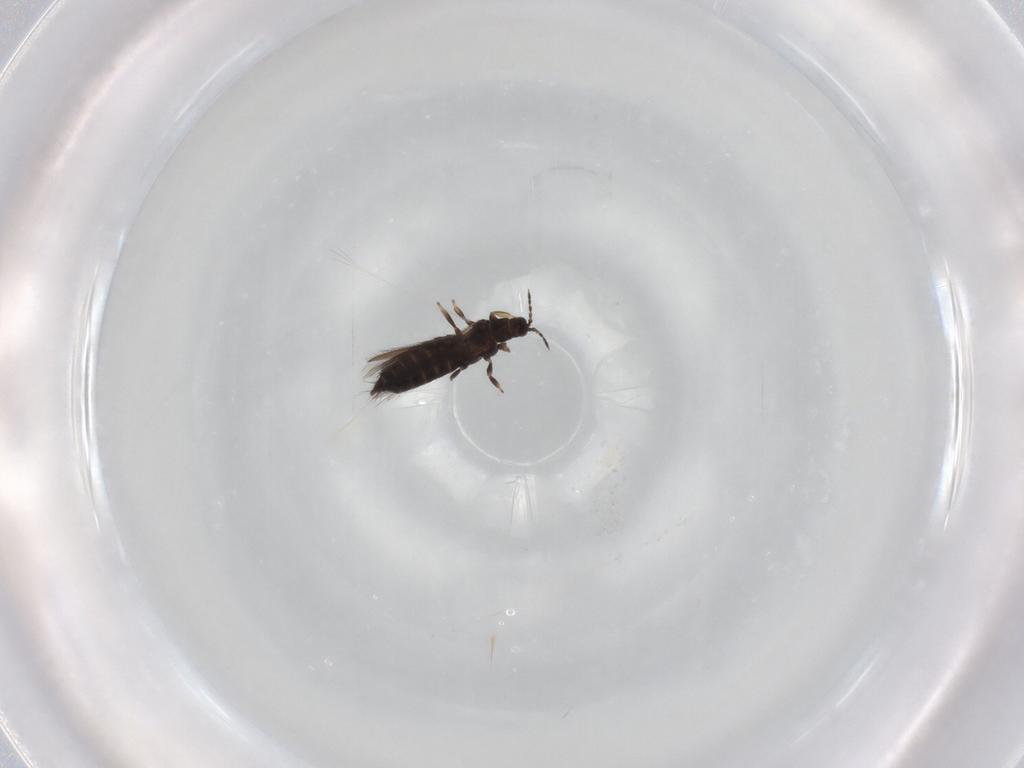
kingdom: Animalia
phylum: Arthropoda
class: Insecta
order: Thysanoptera
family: Thripidae
